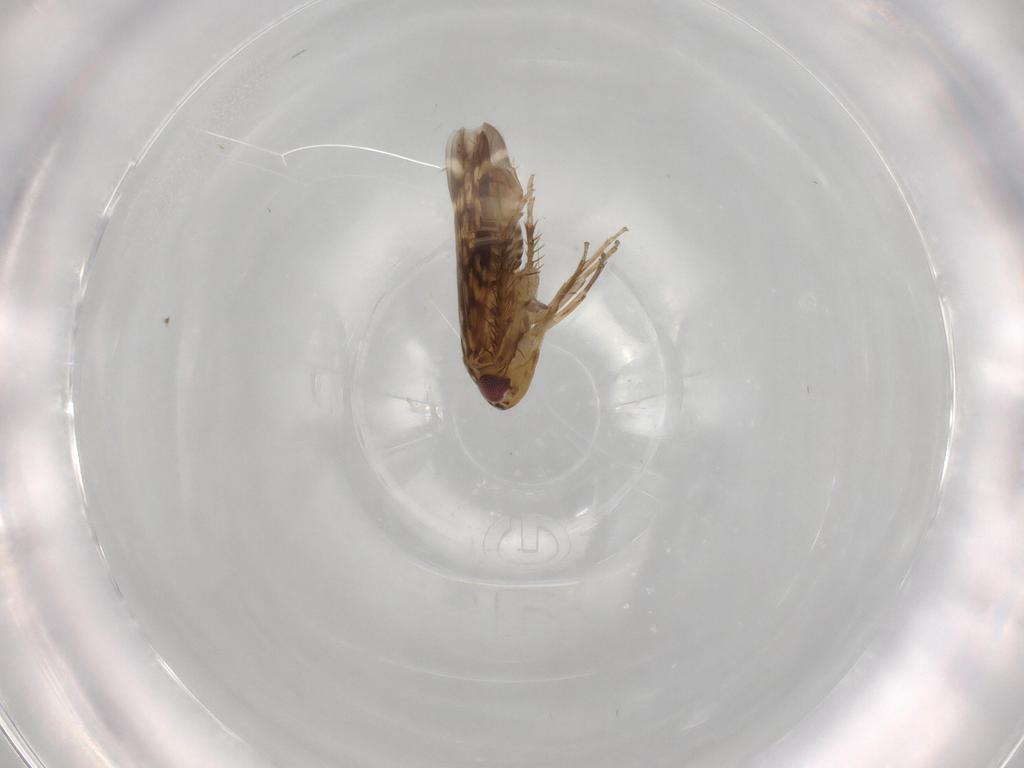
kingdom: Animalia
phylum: Arthropoda
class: Insecta
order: Hemiptera
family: Cicadellidae
